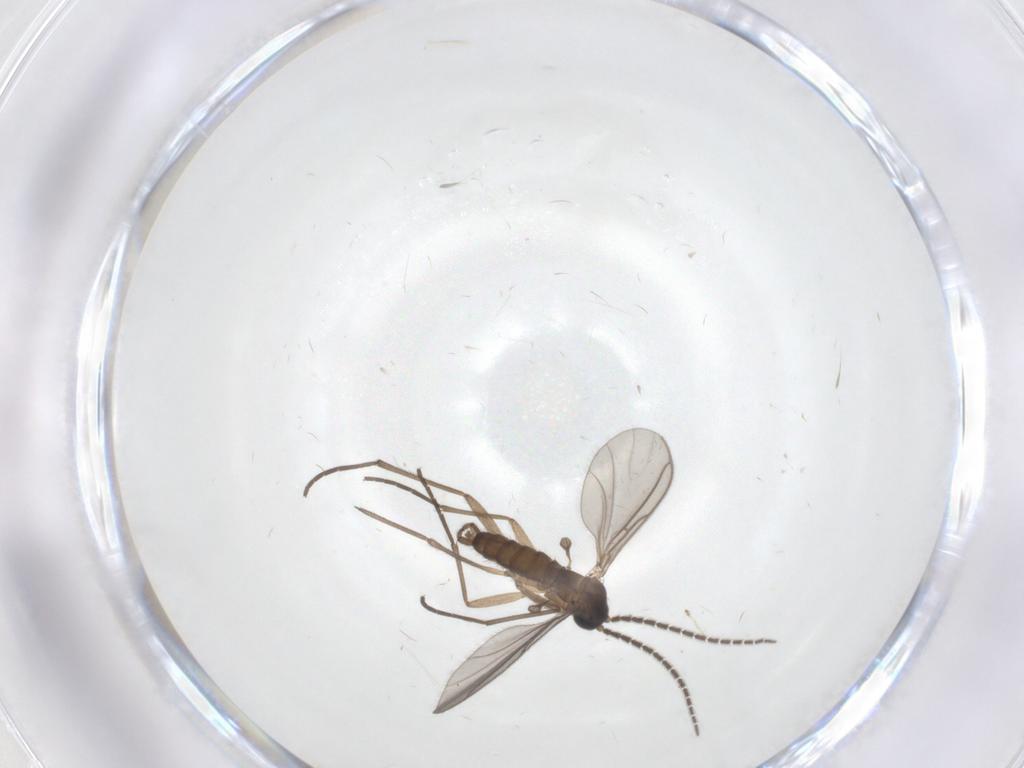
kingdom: Animalia
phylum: Arthropoda
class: Insecta
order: Diptera
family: Sciaridae
